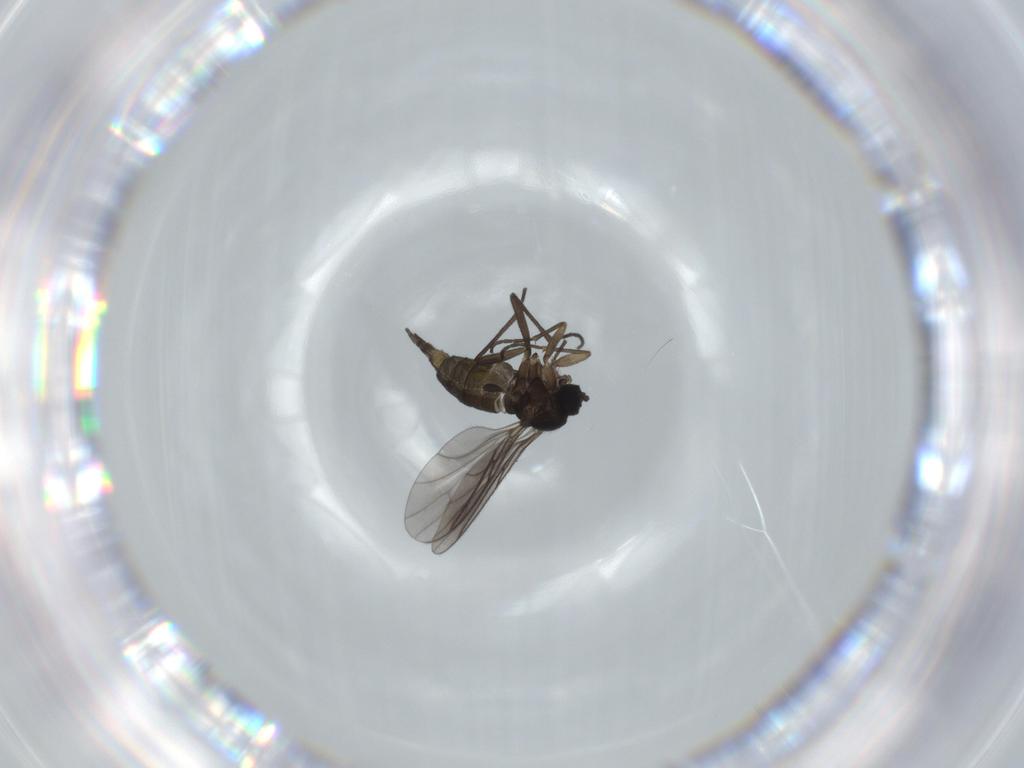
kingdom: Animalia
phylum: Arthropoda
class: Insecta
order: Diptera
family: Sciaridae
